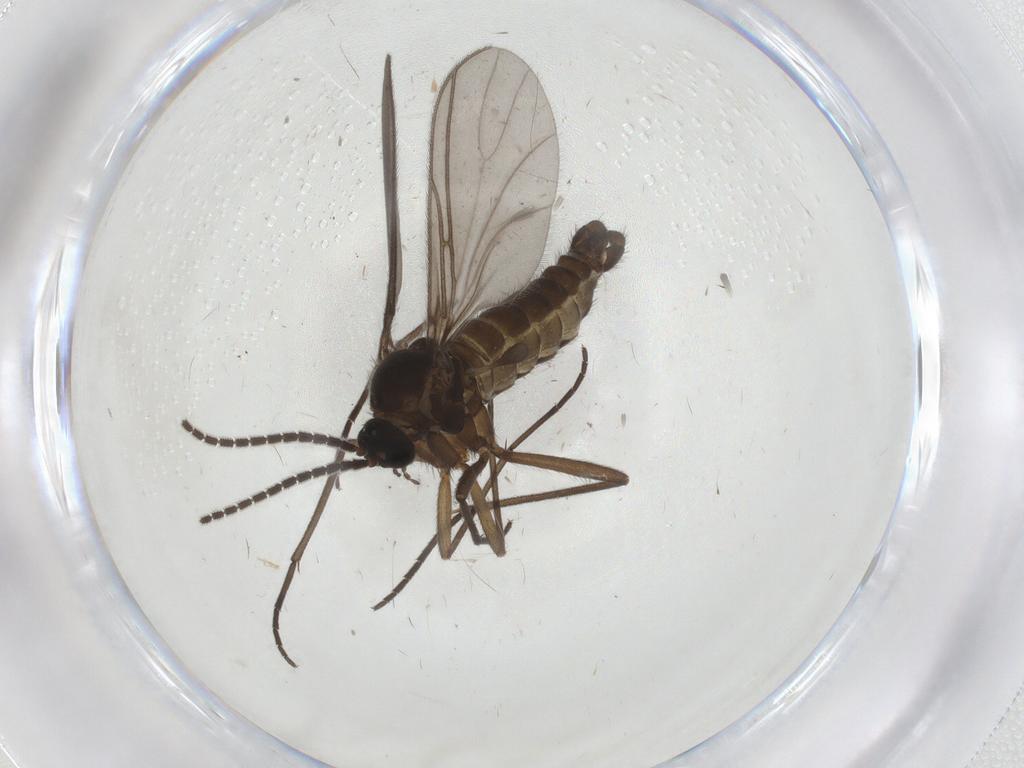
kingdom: Animalia
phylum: Arthropoda
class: Insecta
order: Diptera
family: Sciaridae
